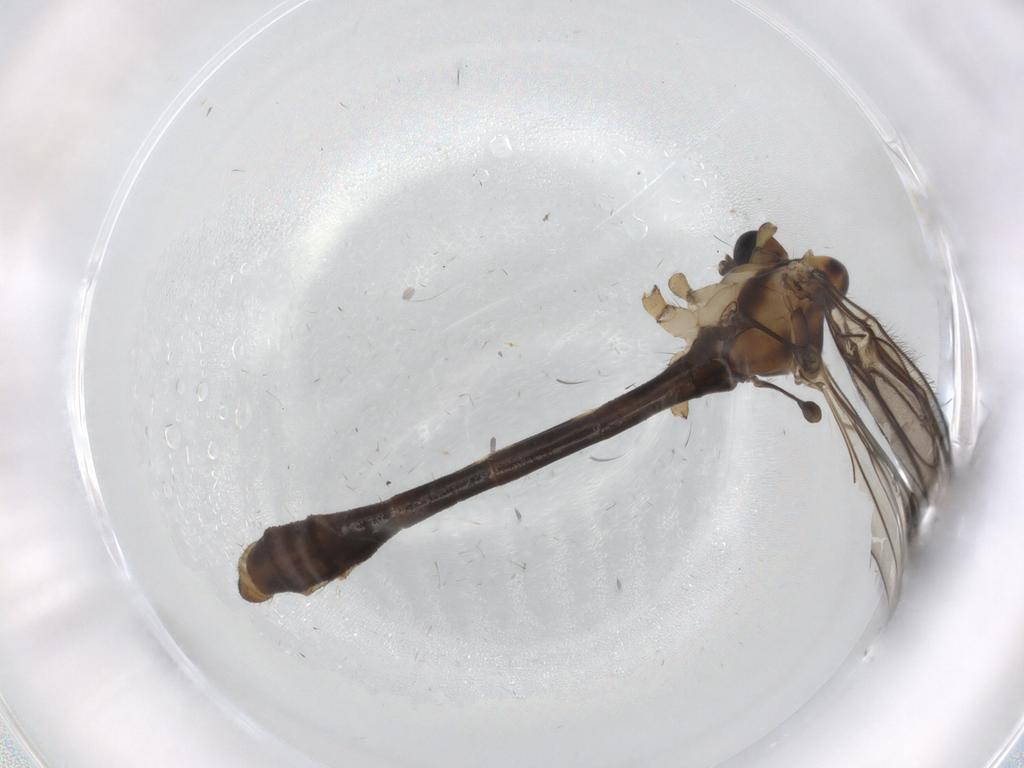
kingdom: Animalia
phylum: Arthropoda
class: Insecta
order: Diptera
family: Limoniidae
